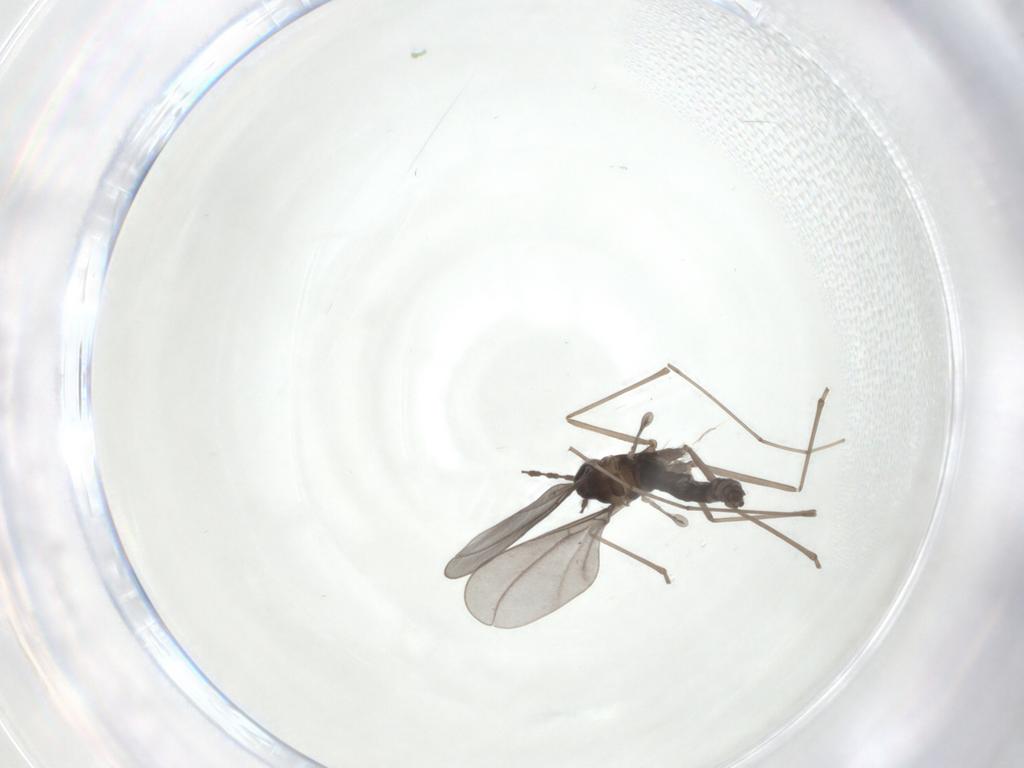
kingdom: Animalia
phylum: Arthropoda
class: Insecta
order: Diptera
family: Cecidomyiidae
